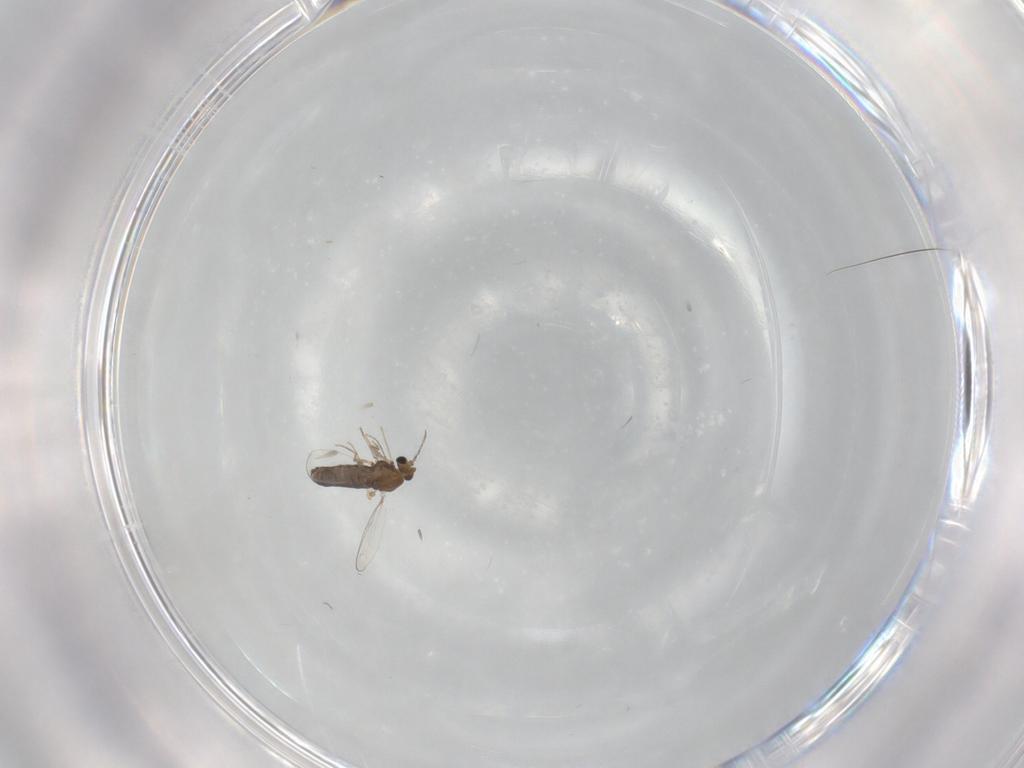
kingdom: Animalia
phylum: Arthropoda
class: Insecta
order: Diptera
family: Chironomidae
